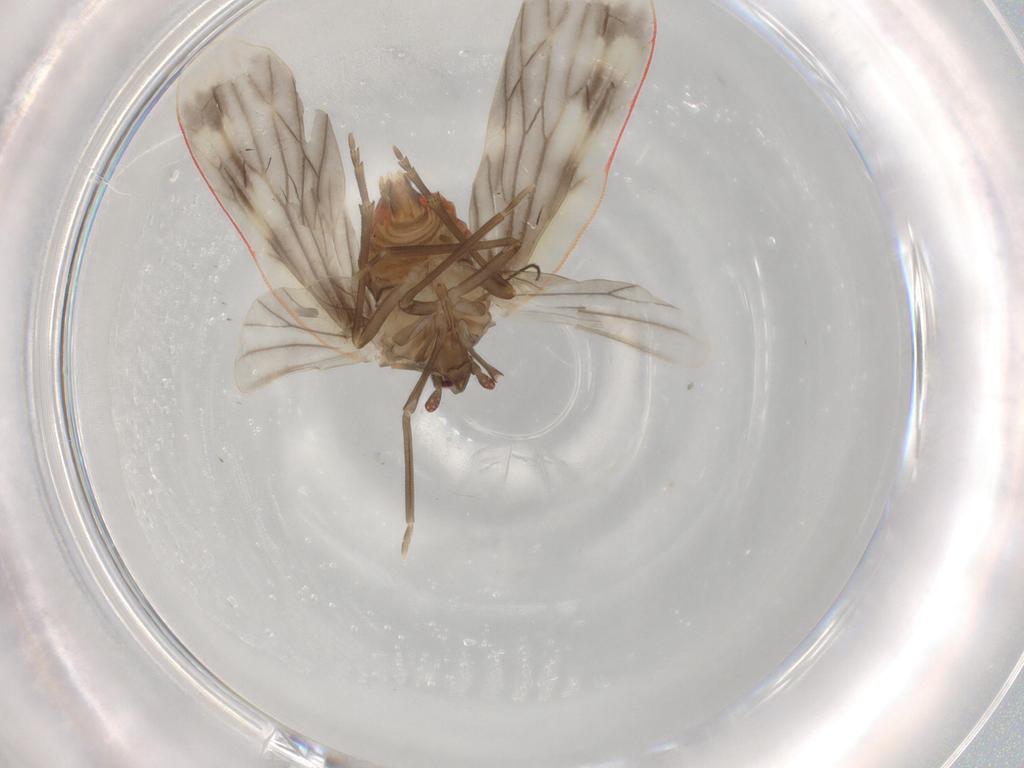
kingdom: Animalia
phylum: Arthropoda
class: Insecta
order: Hemiptera
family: Derbidae
